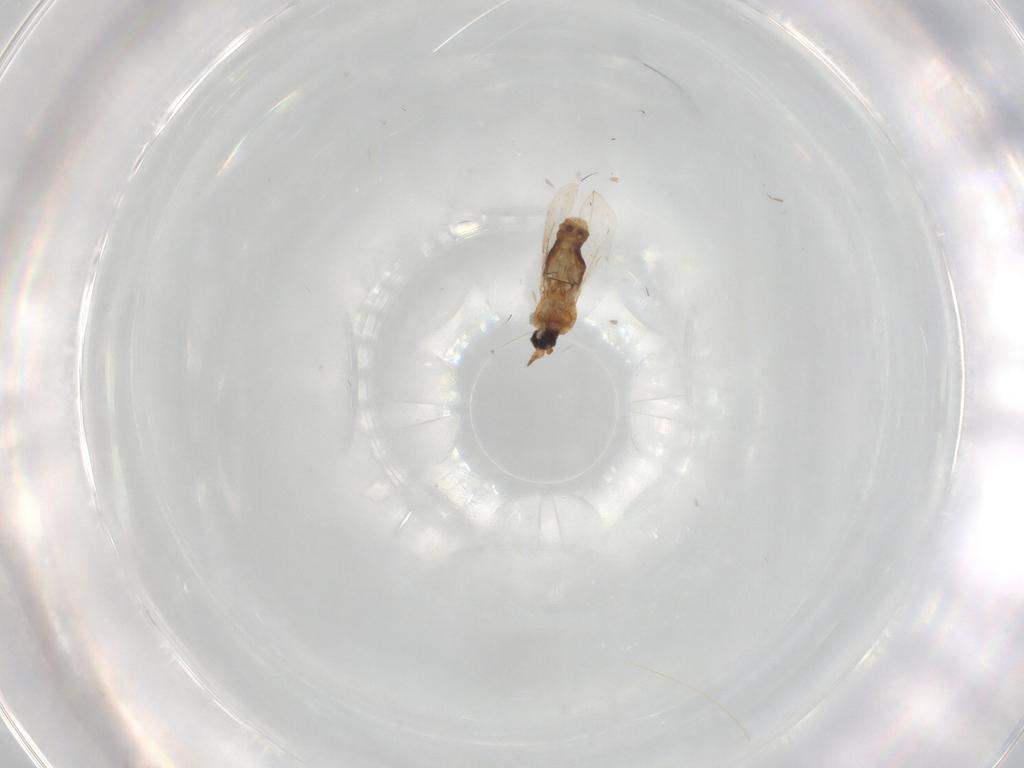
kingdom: Animalia
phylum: Arthropoda
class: Insecta
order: Diptera
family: Ceratopogonidae
